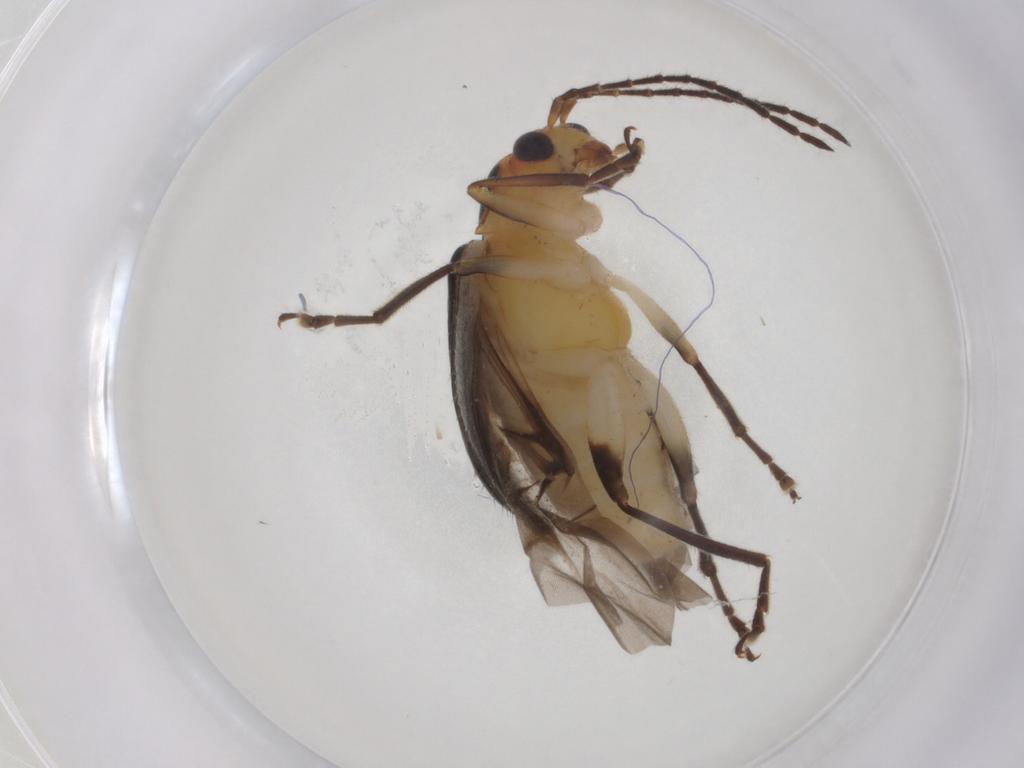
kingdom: Animalia
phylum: Arthropoda
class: Insecta
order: Coleoptera
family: Chrysomelidae
